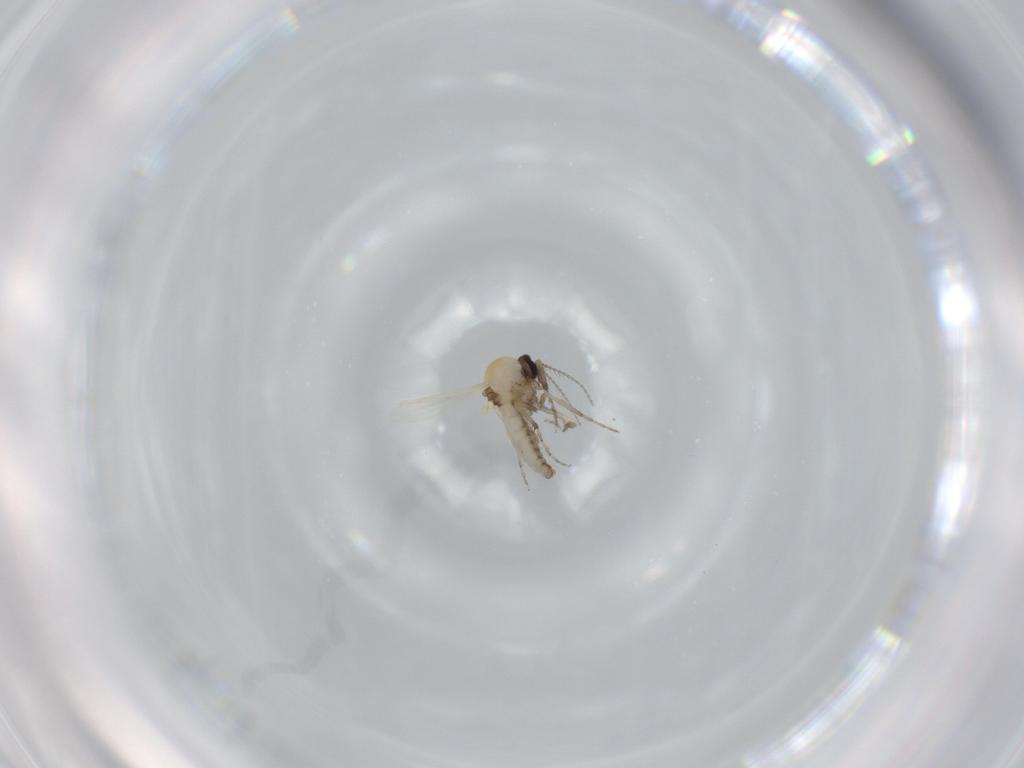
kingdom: Animalia
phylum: Arthropoda
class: Insecta
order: Diptera
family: Ceratopogonidae
